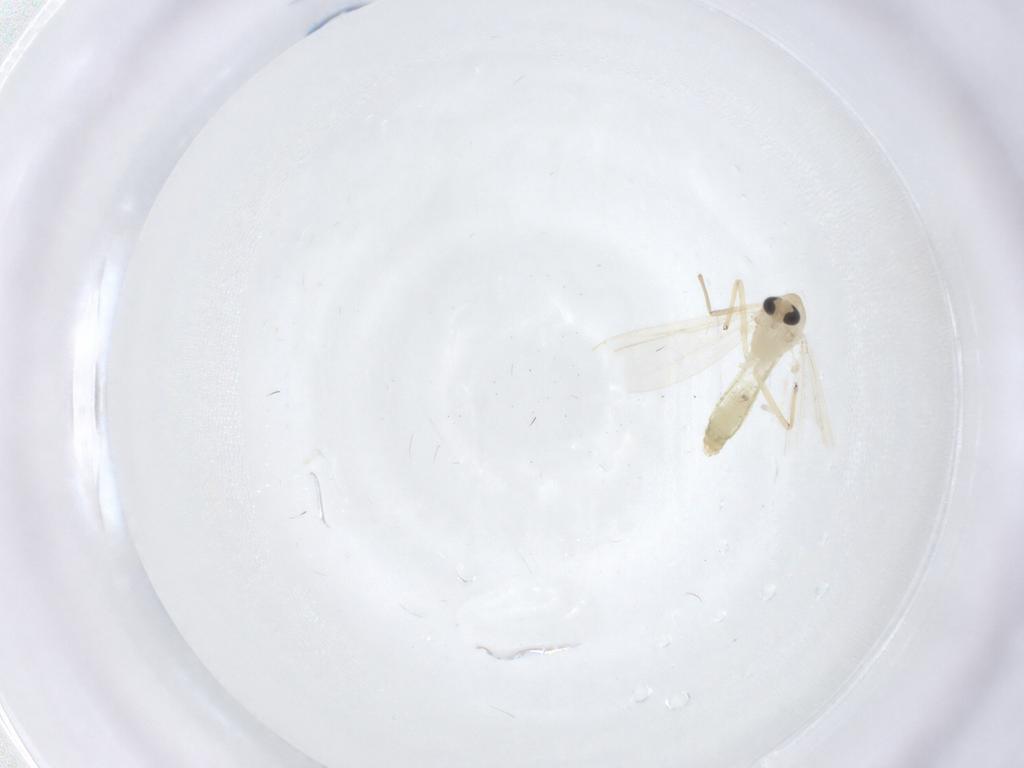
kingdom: Animalia
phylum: Arthropoda
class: Insecta
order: Diptera
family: Chironomidae
